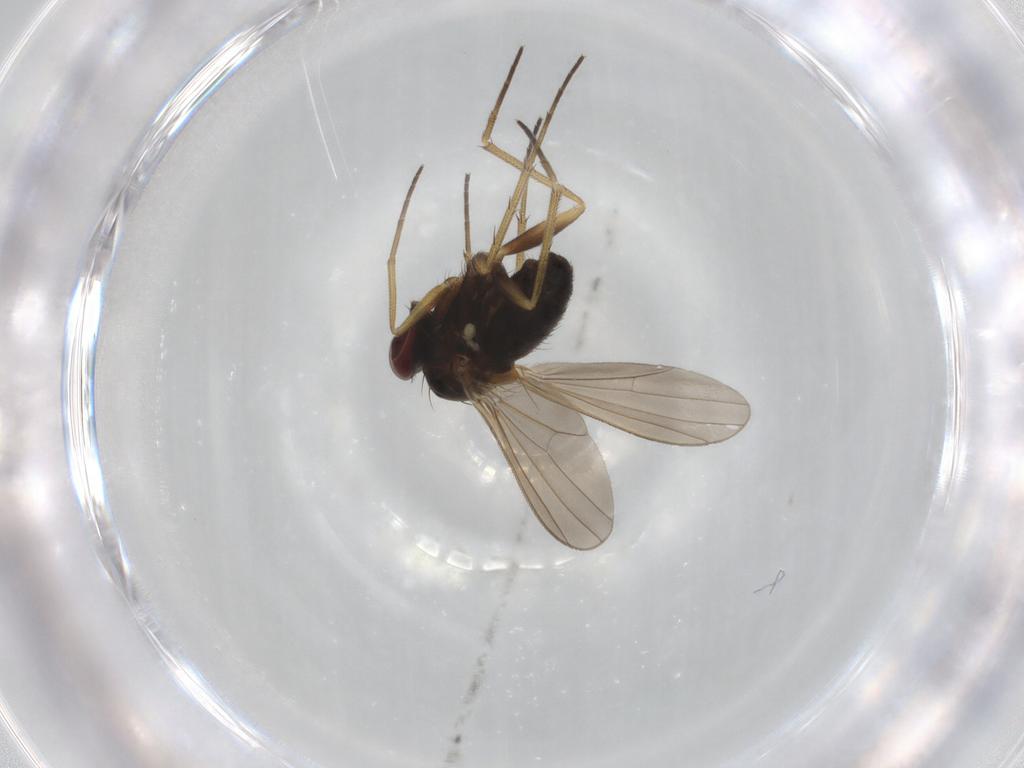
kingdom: Animalia
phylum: Arthropoda
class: Insecta
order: Diptera
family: Dolichopodidae
